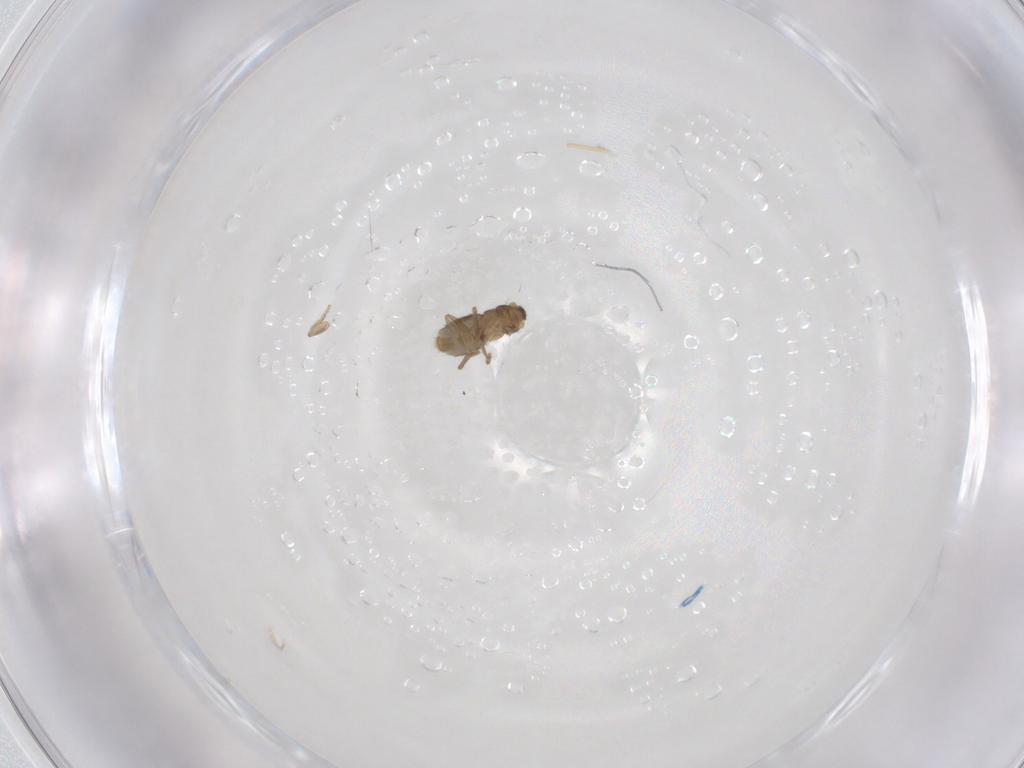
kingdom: Animalia
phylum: Arthropoda
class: Insecta
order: Diptera
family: Phoridae
